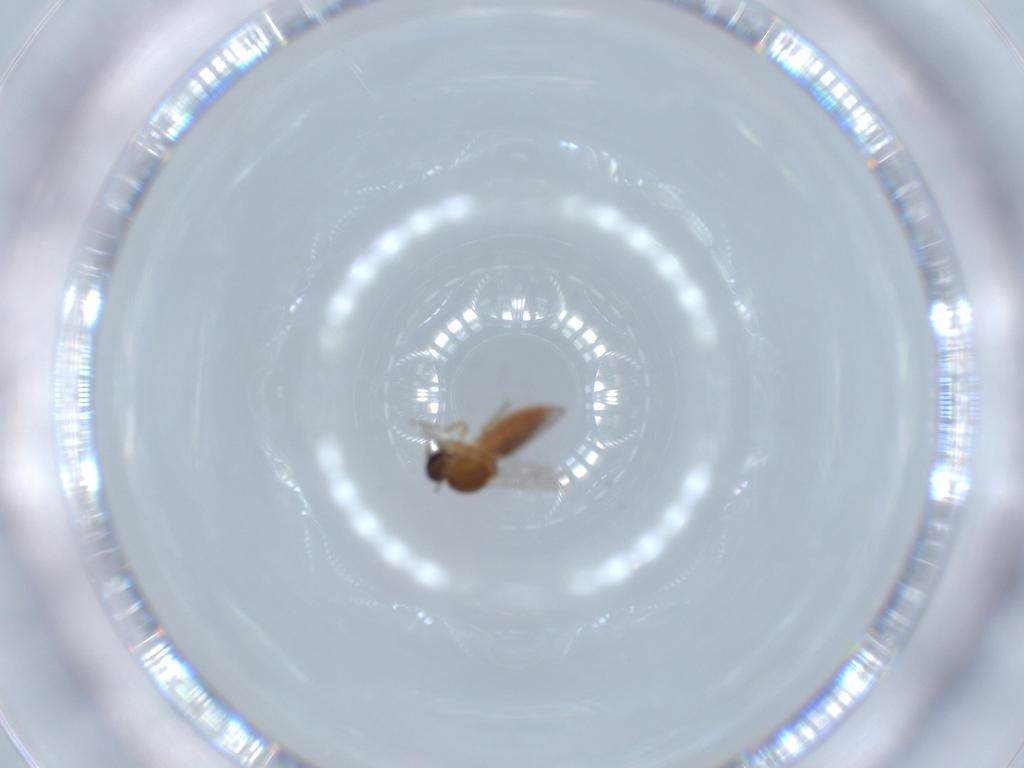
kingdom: Animalia
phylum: Arthropoda
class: Insecta
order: Diptera
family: Ceratopogonidae
